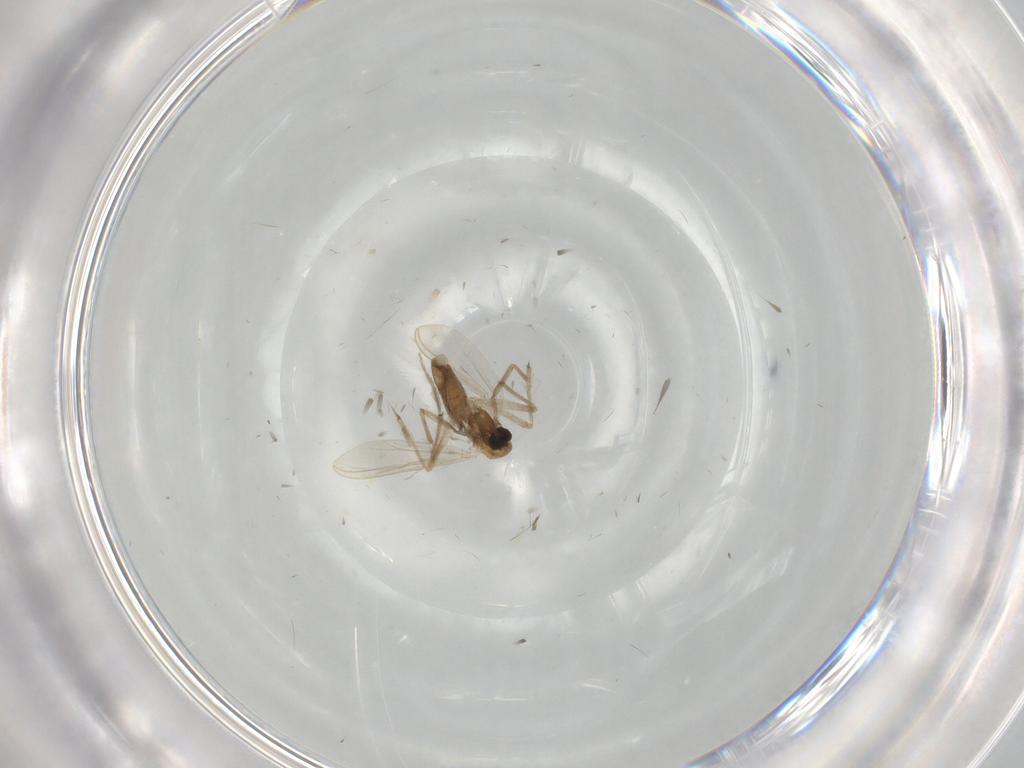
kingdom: Animalia
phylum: Arthropoda
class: Insecta
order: Diptera
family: Chironomidae
